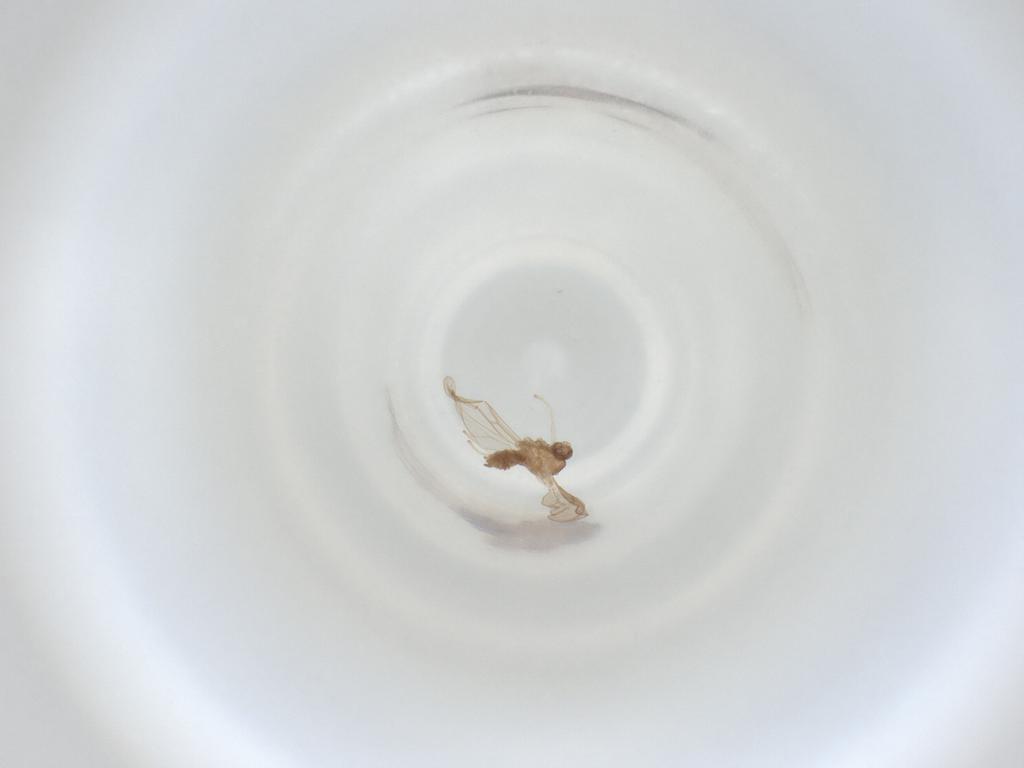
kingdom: Animalia
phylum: Arthropoda
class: Insecta
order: Diptera
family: Cecidomyiidae
